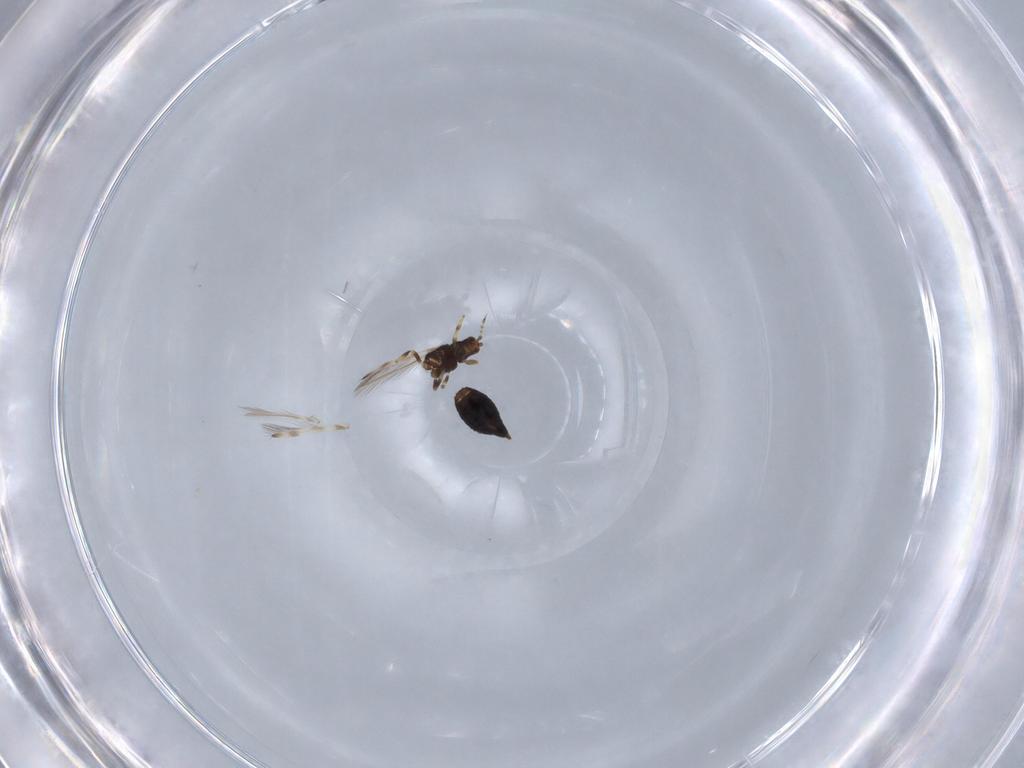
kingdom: Animalia
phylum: Arthropoda
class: Insecta
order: Thysanoptera
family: Thripidae
